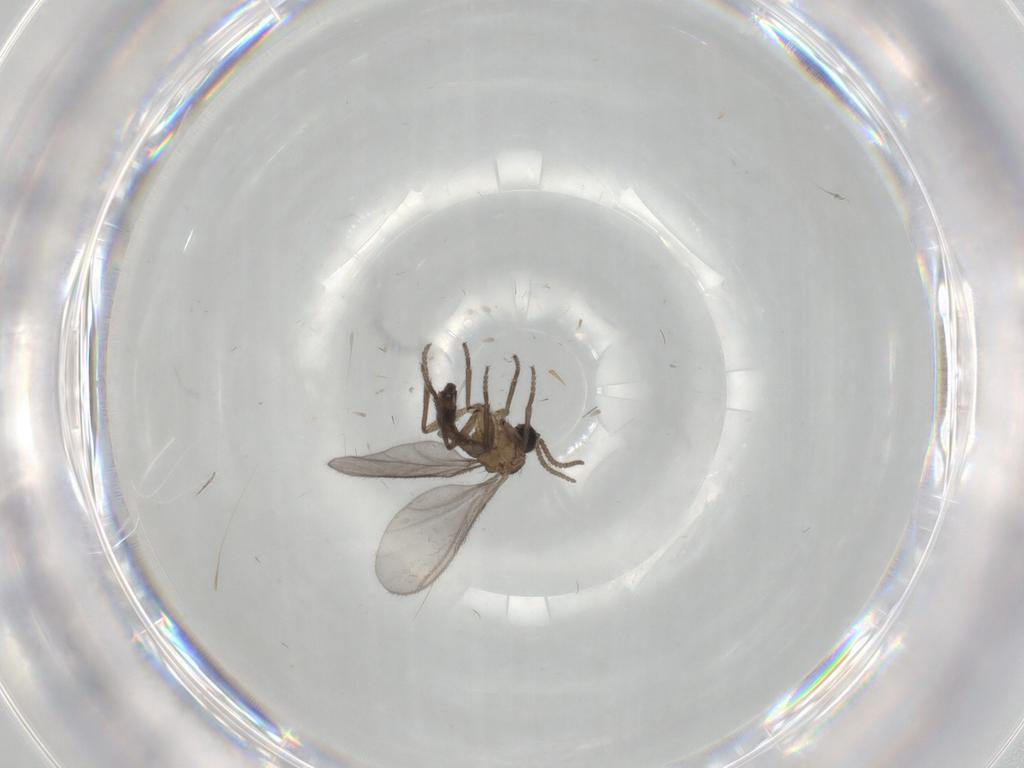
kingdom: Animalia
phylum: Arthropoda
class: Insecta
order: Diptera
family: Sciaridae
